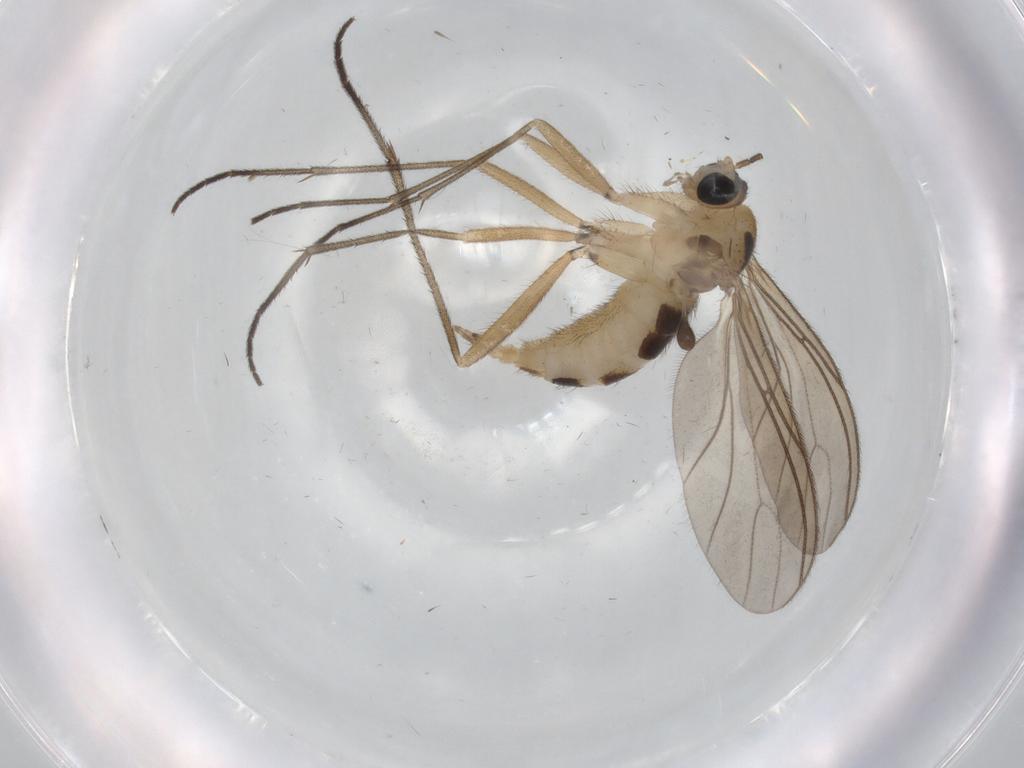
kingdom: Animalia
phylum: Arthropoda
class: Insecta
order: Diptera
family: Sciaridae
